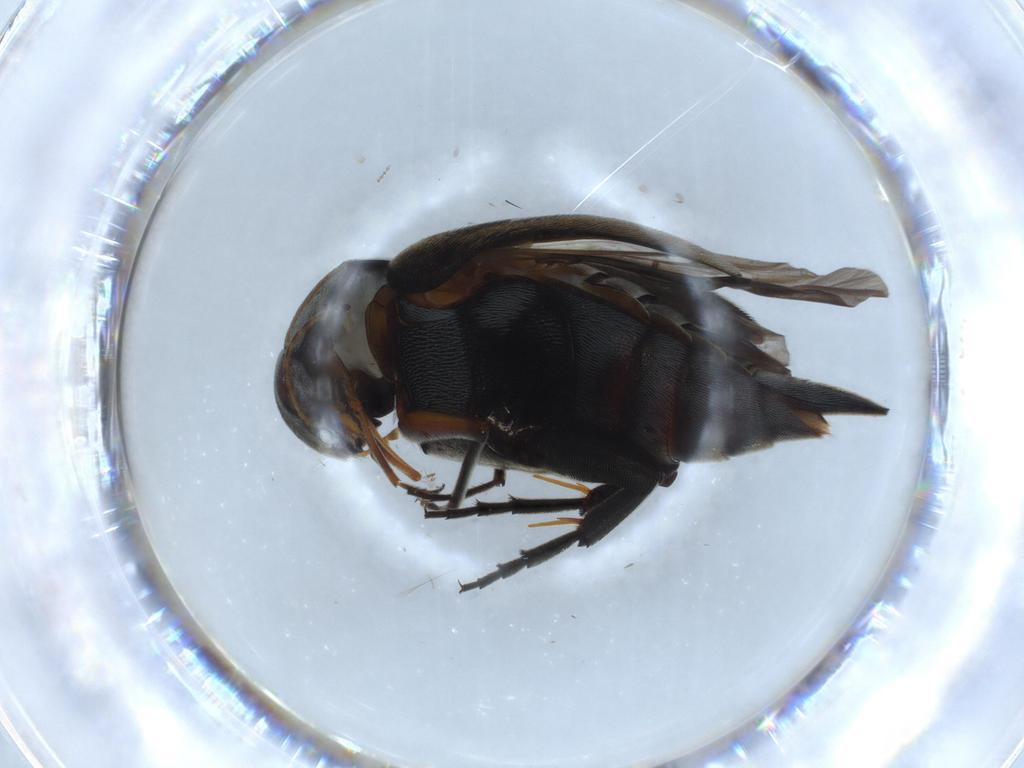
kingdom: Animalia
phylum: Arthropoda
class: Insecta
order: Coleoptera
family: Mordellidae
